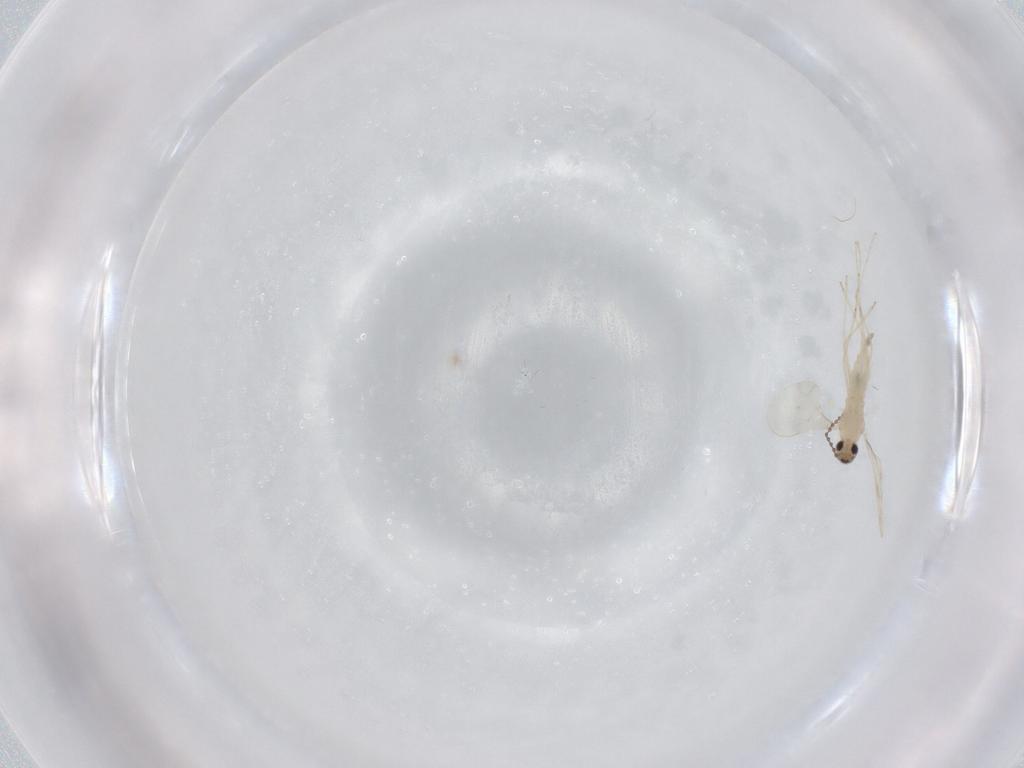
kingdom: Animalia
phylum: Arthropoda
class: Insecta
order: Diptera
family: Cecidomyiidae
